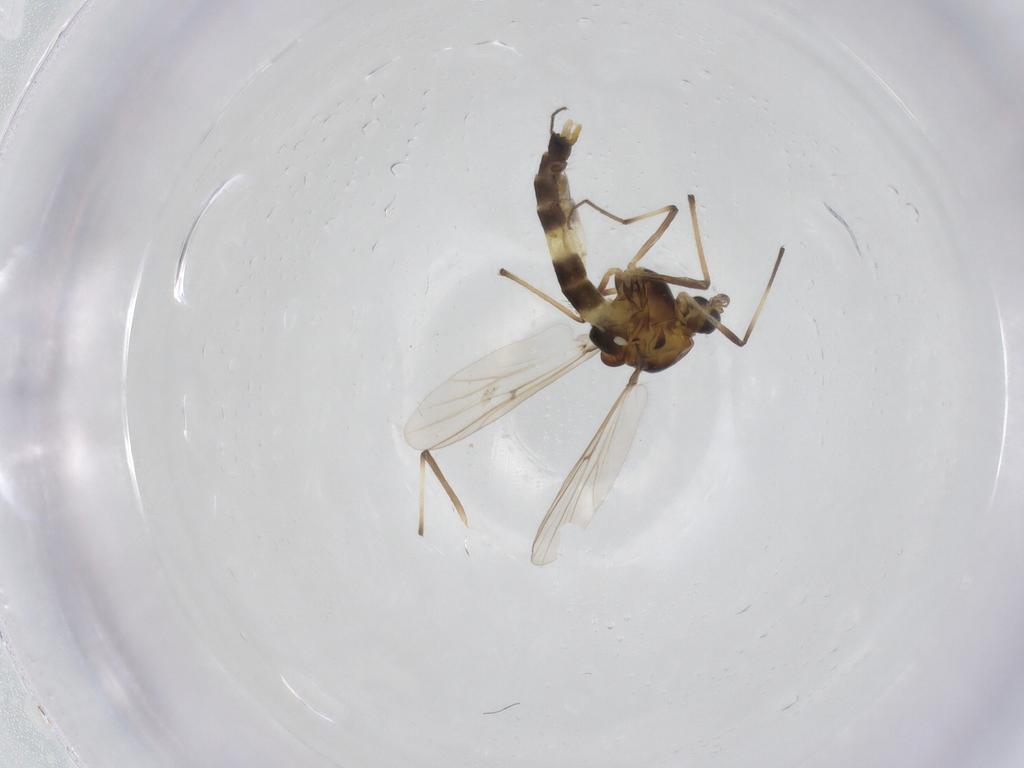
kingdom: Animalia
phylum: Arthropoda
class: Insecta
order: Diptera
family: Chironomidae
